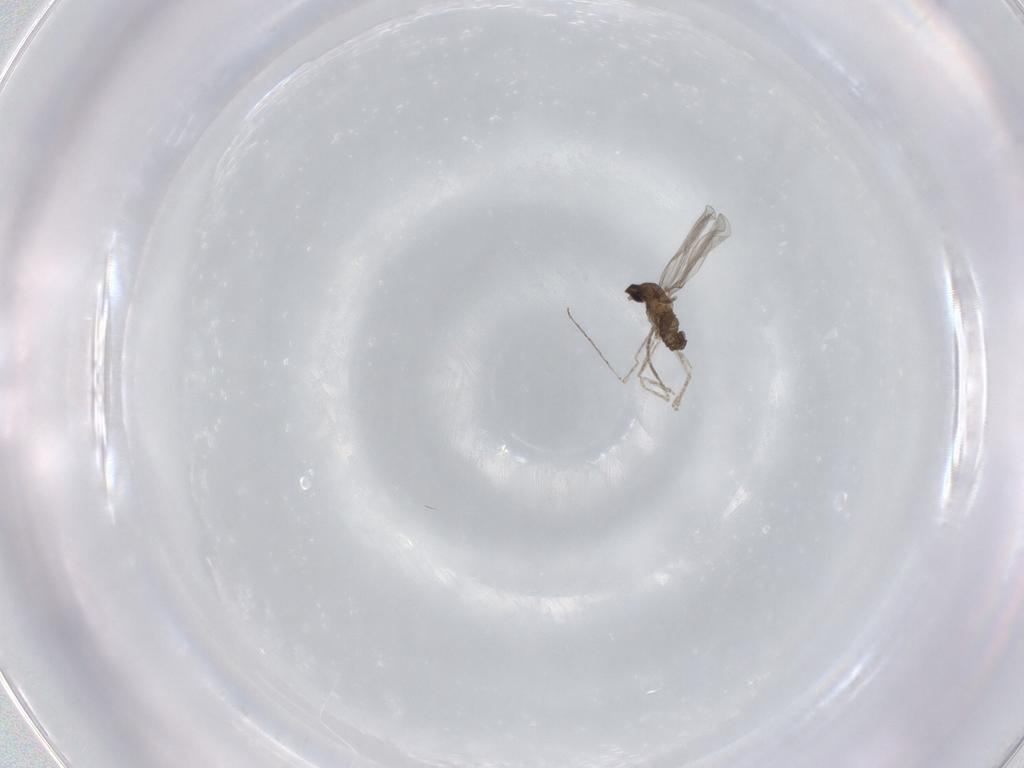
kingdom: Animalia
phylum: Arthropoda
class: Insecta
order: Diptera
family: Cecidomyiidae
